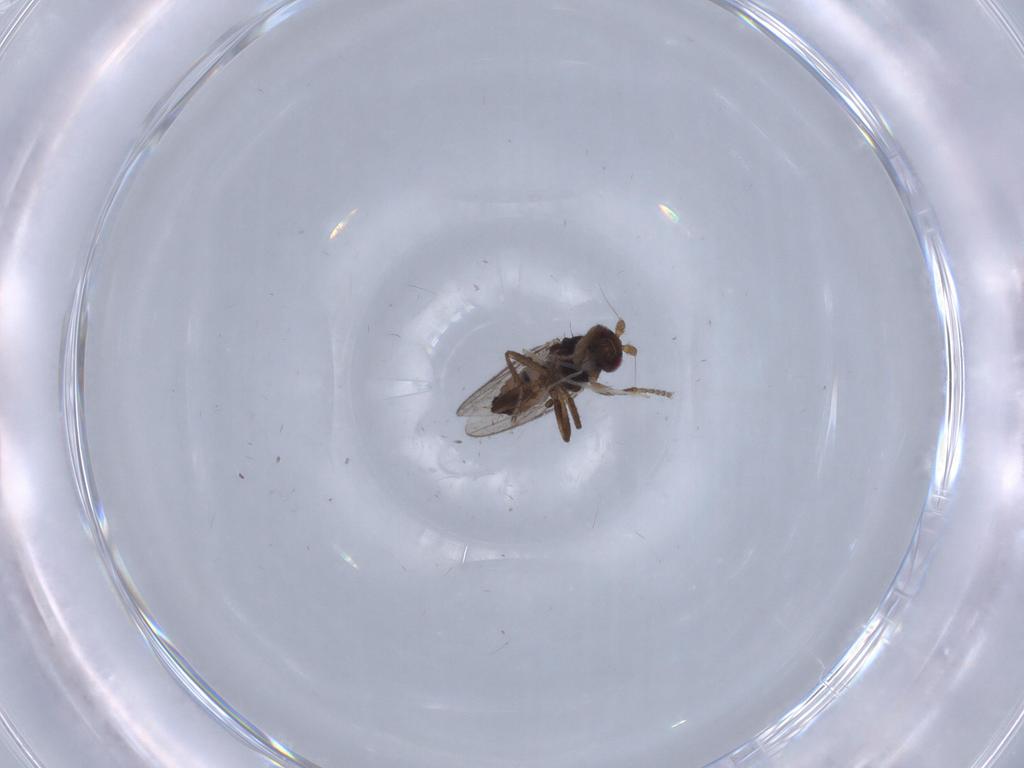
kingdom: Animalia
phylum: Arthropoda
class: Insecta
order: Diptera
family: Sphaeroceridae
